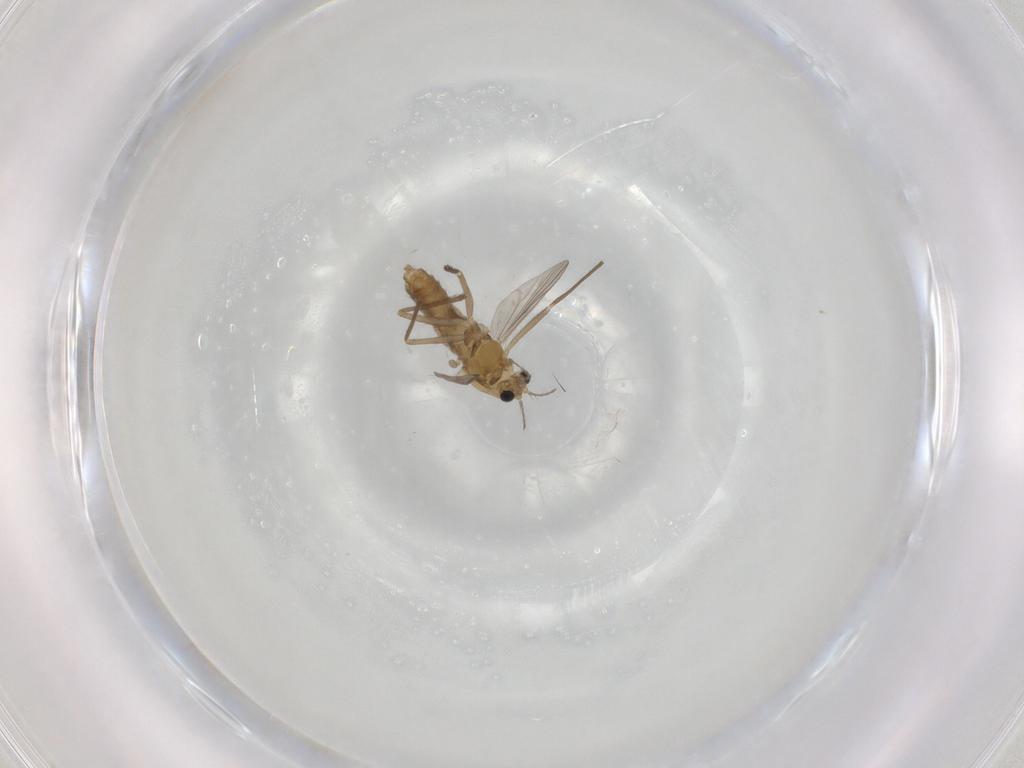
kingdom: Animalia
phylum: Arthropoda
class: Insecta
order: Diptera
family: Chironomidae
